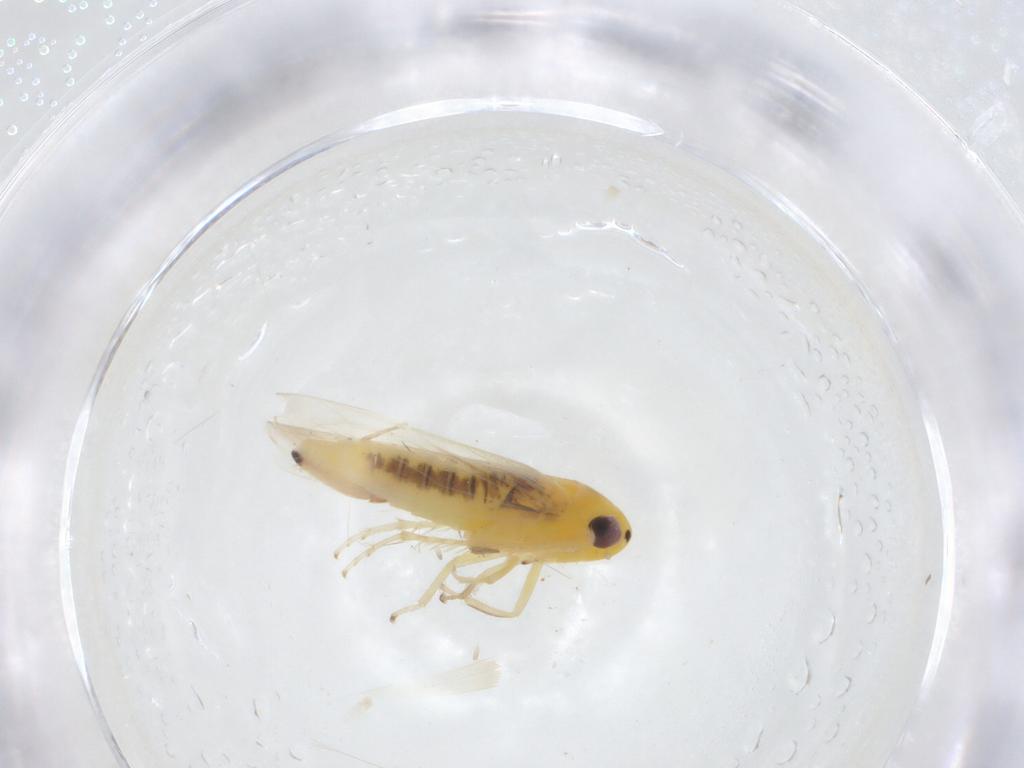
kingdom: Animalia
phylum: Arthropoda
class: Insecta
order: Hemiptera
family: Cicadellidae
